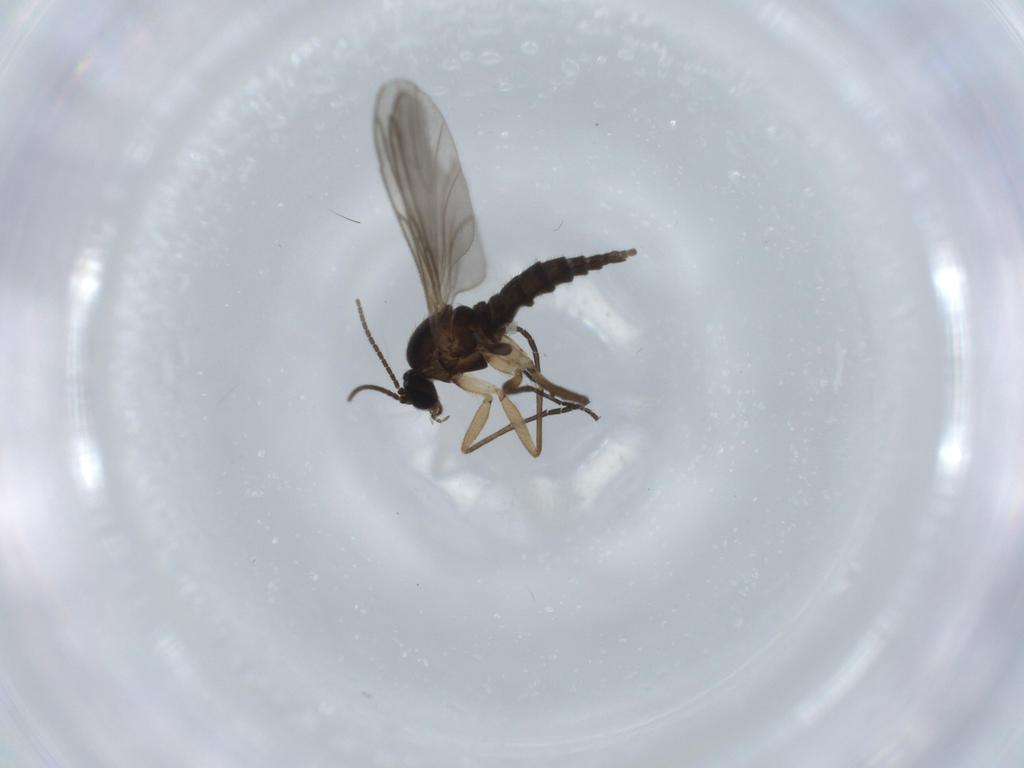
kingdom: Animalia
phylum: Arthropoda
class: Insecta
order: Diptera
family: Sciaridae
